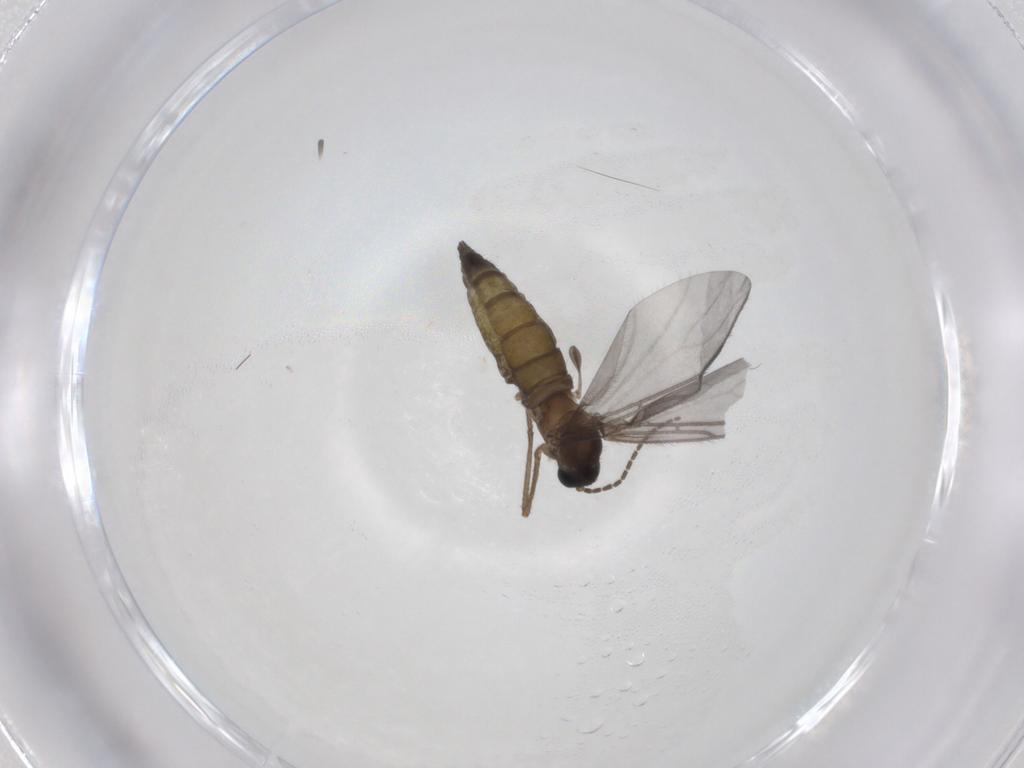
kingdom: Animalia
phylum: Arthropoda
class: Insecta
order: Diptera
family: Sciaridae
